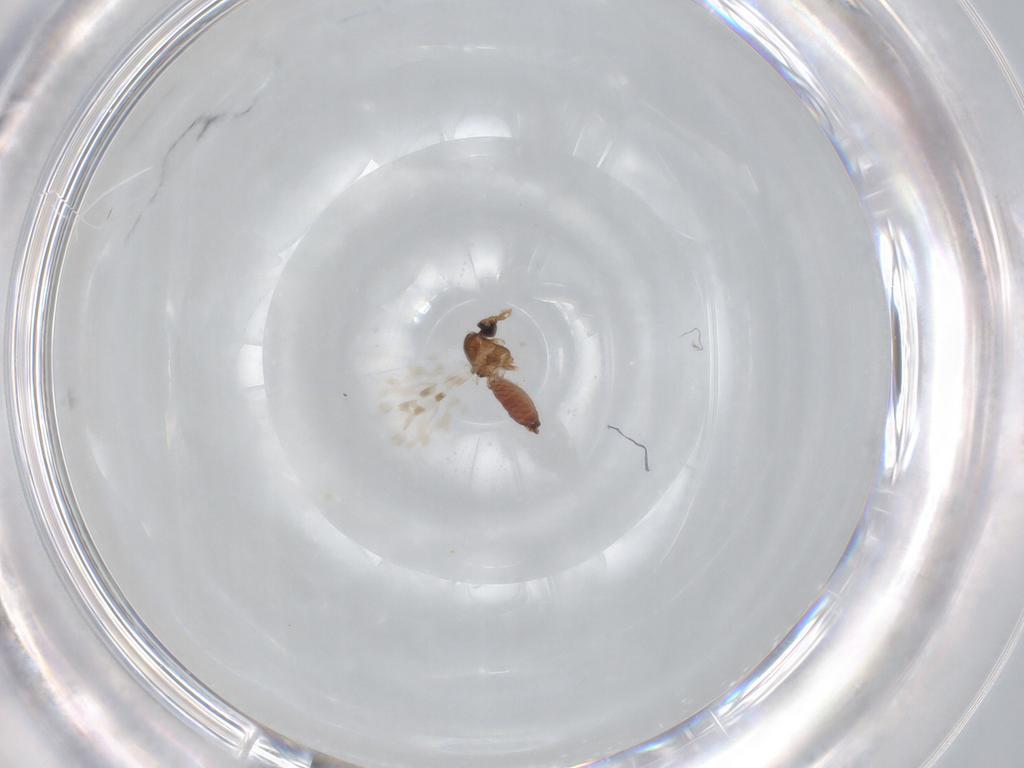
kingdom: Animalia
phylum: Arthropoda
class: Insecta
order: Diptera
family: Ceratopogonidae
